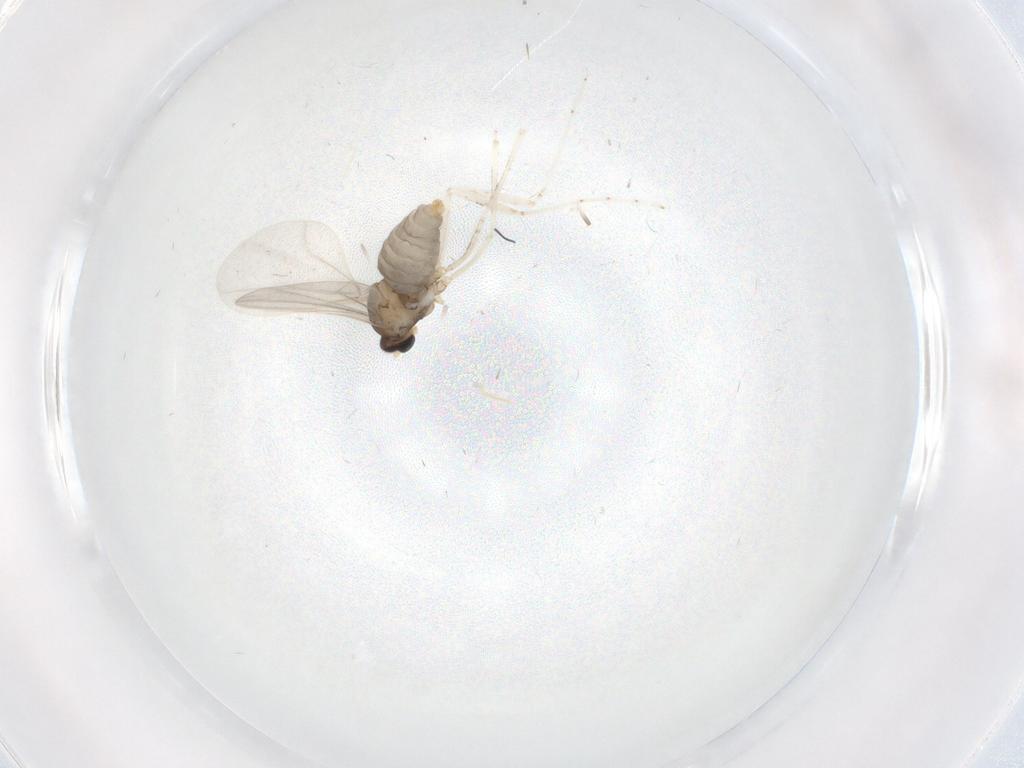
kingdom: Animalia
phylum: Arthropoda
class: Insecta
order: Diptera
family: Cecidomyiidae
